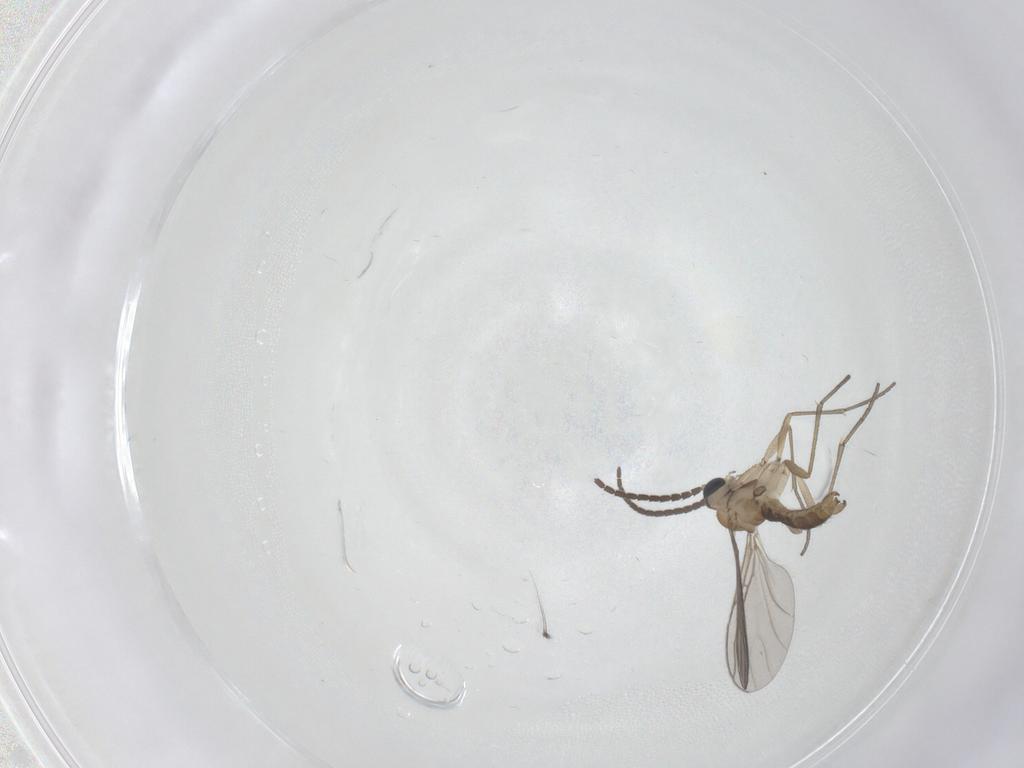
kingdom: Animalia
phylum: Arthropoda
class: Insecta
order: Diptera
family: Sciaridae
